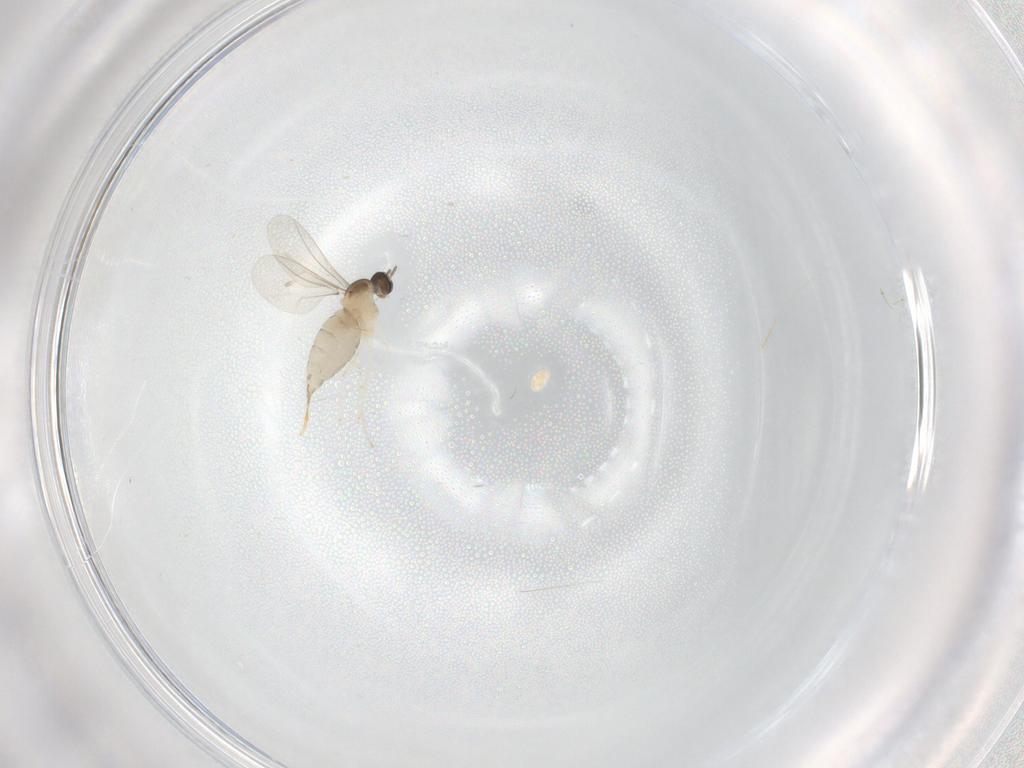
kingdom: Animalia
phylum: Arthropoda
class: Insecta
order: Diptera
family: Cecidomyiidae
